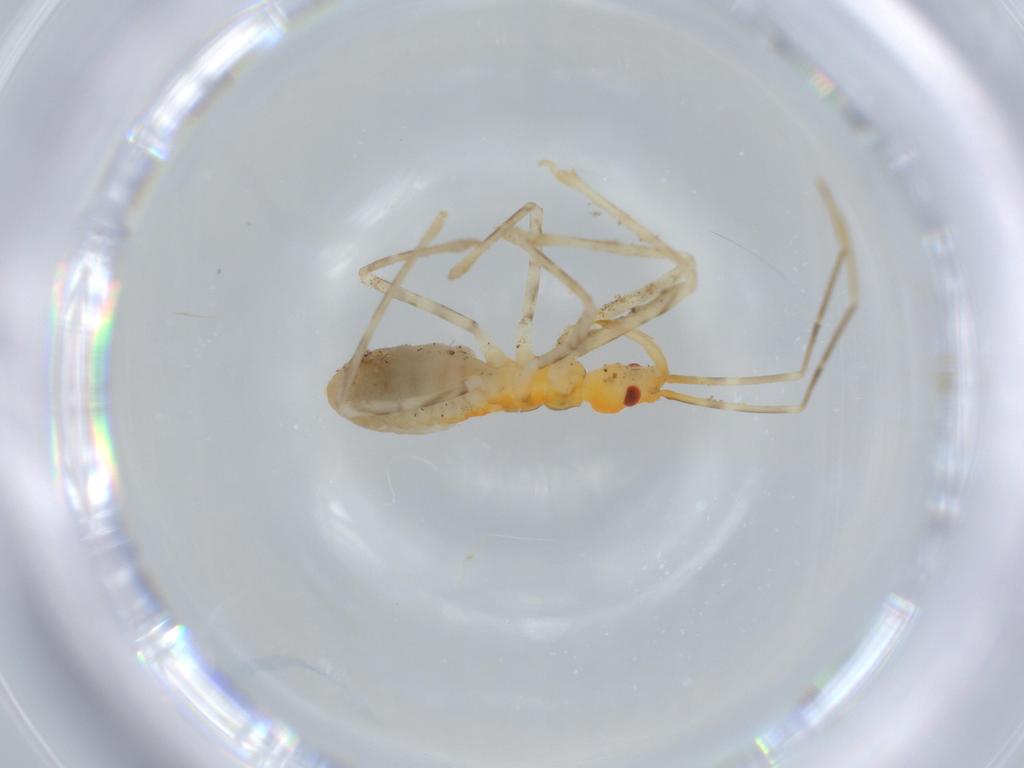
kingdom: Animalia
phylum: Arthropoda
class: Insecta
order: Hemiptera
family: Reduviidae
